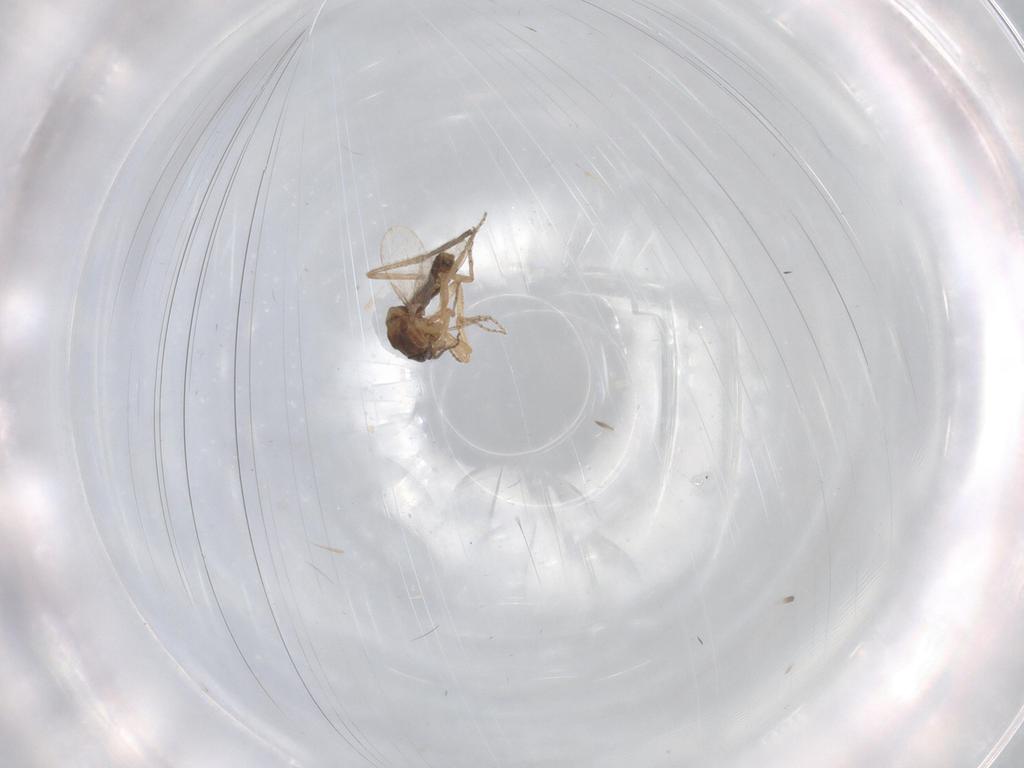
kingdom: Animalia
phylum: Arthropoda
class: Insecta
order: Diptera
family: Ceratopogonidae
